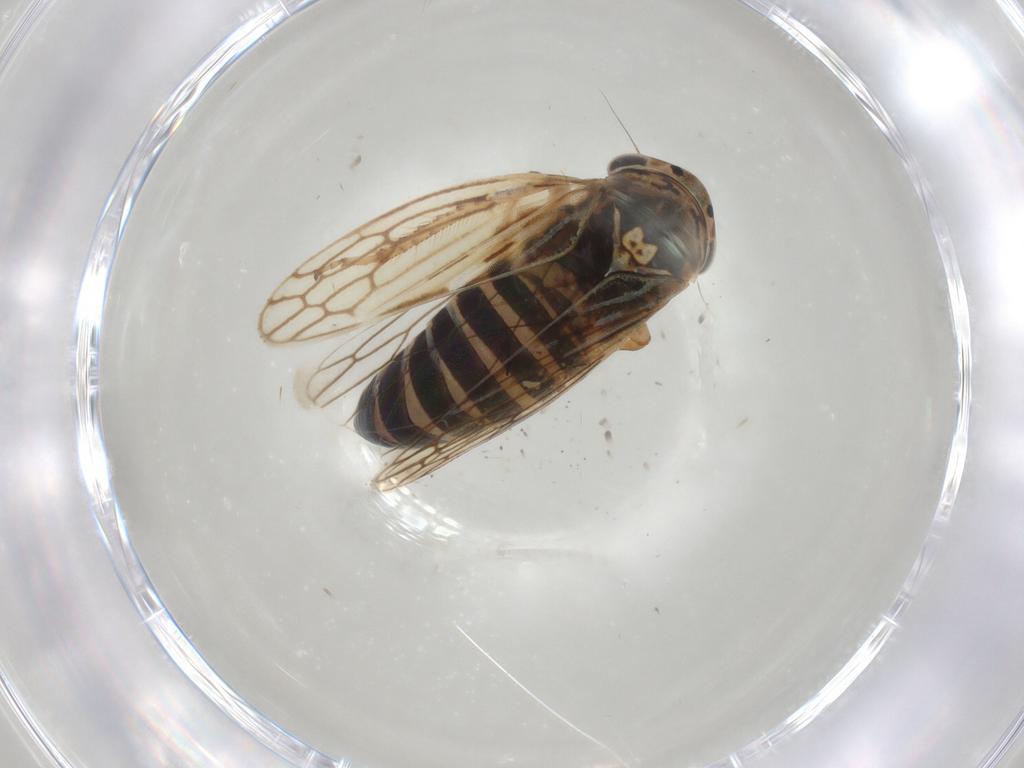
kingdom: Animalia
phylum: Arthropoda
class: Insecta
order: Hemiptera
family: Cicadellidae
